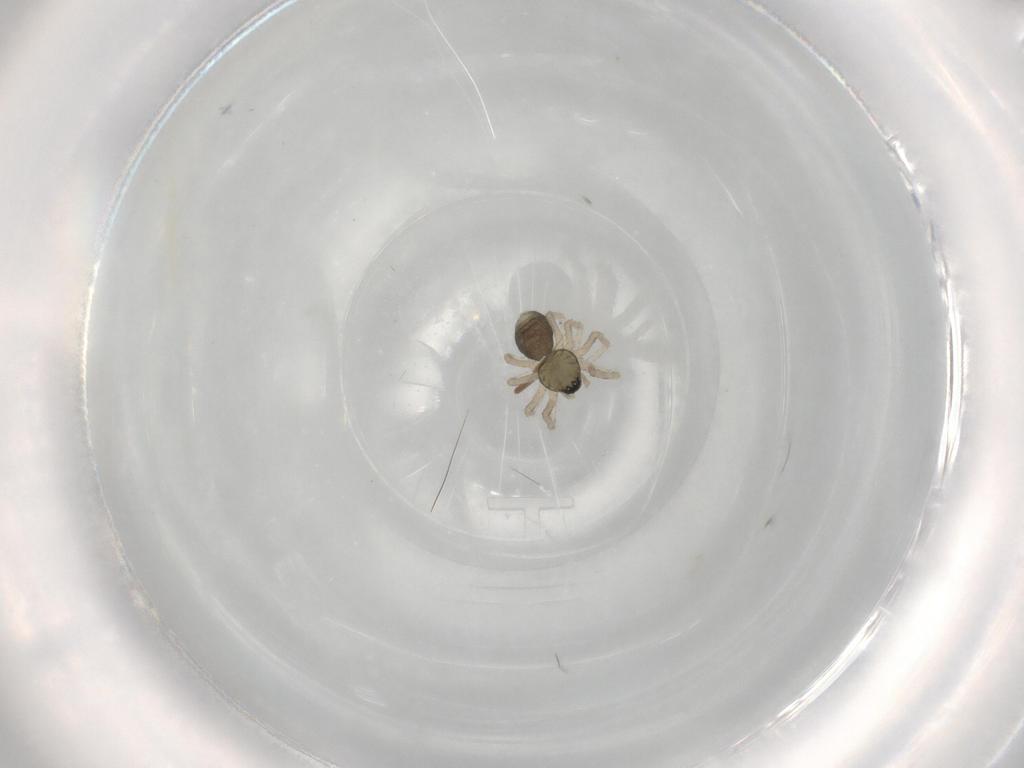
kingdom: Animalia
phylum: Arthropoda
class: Arachnida
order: Araneae
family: Linyphiidae
